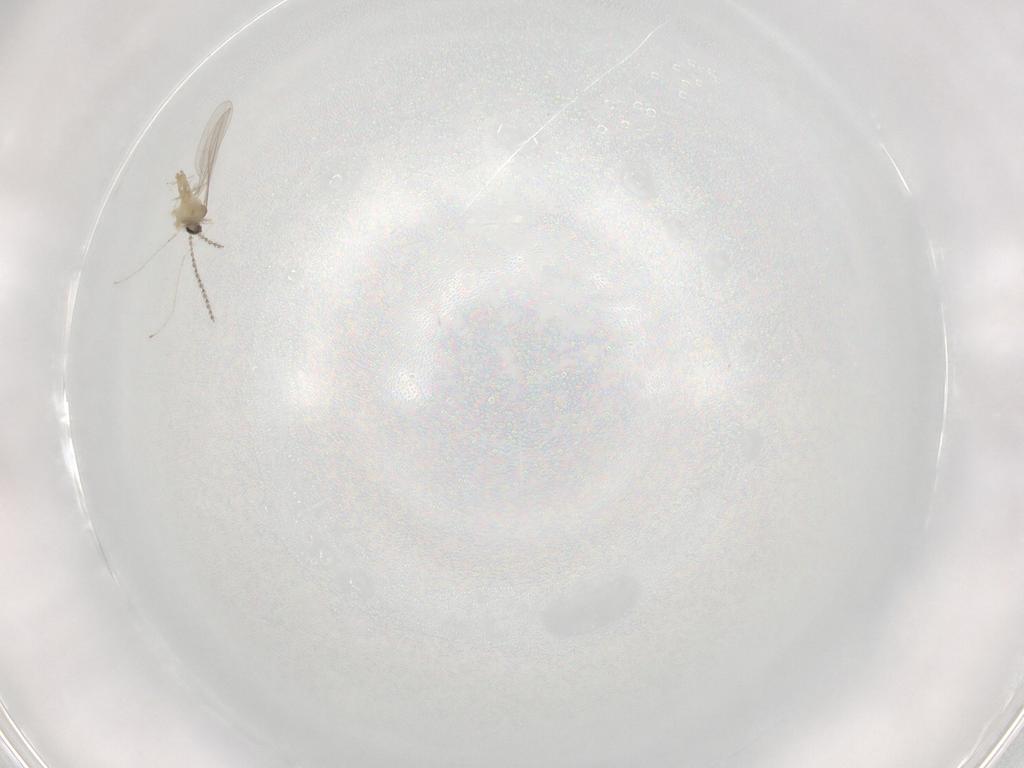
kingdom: Animalia
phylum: Arthropoda
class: Insecta
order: Diptera
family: Cecidomyiidae
